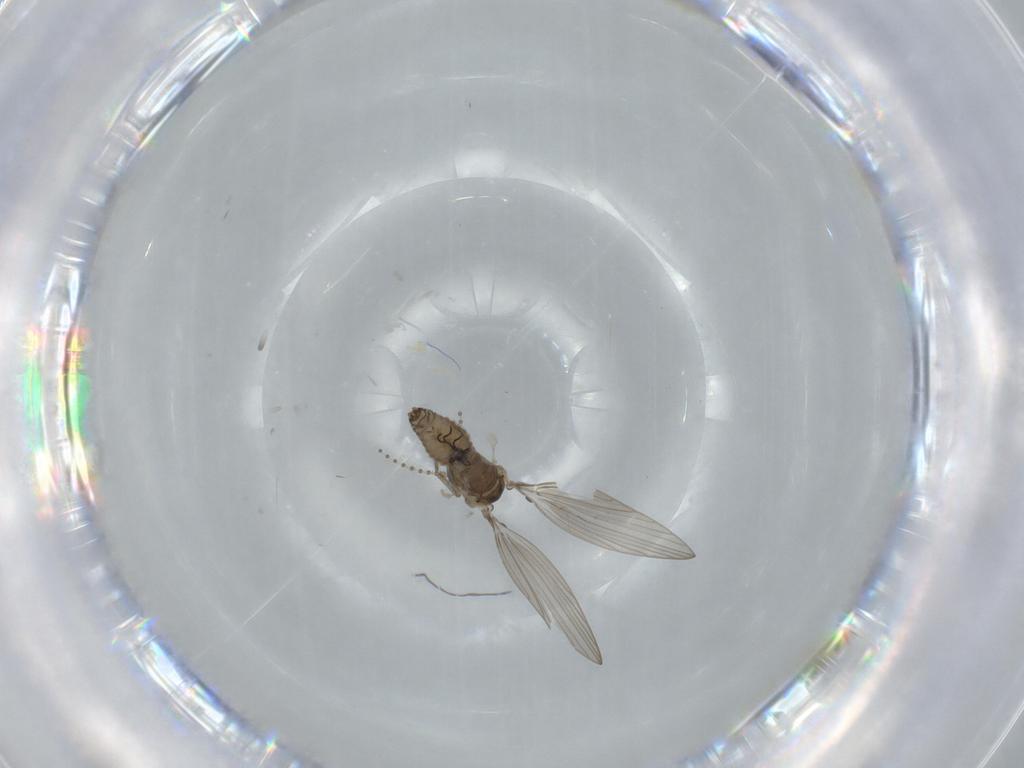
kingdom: Animalia
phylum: Arthropoda
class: Insecta
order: Diptera
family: Psychodidae
